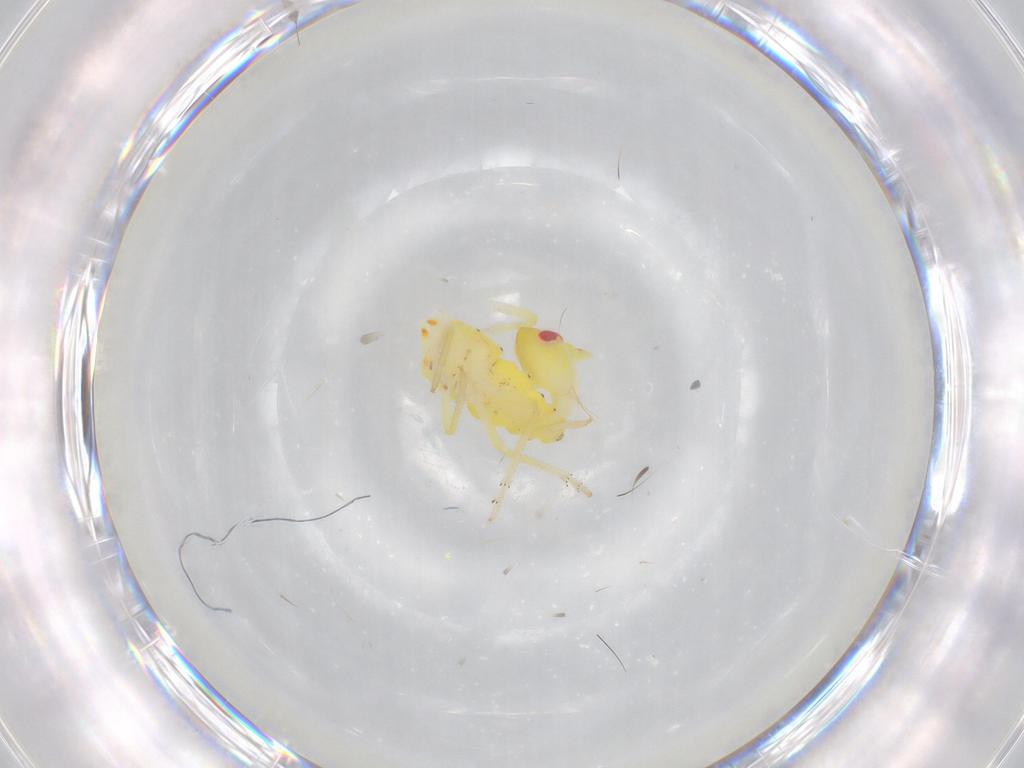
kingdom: Animalia
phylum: Arthropoda
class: Insecta
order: Hemiptera
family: Tropiduchidae
